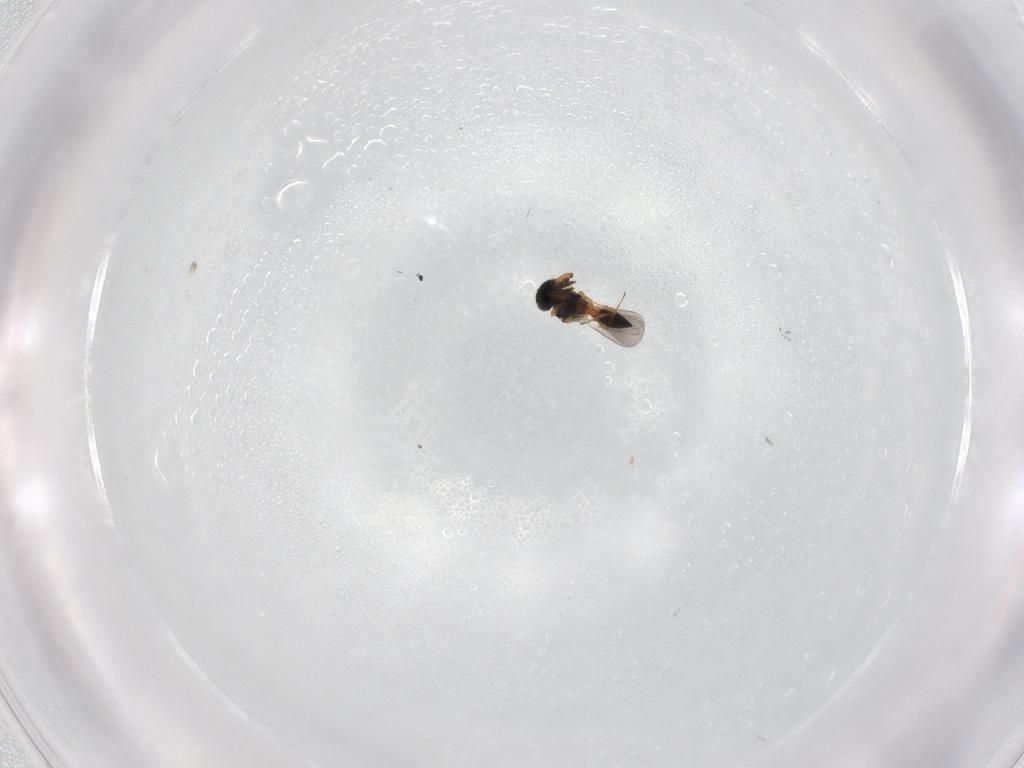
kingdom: Animalia
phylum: Arthropoda
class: Insecta
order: Hymenoptera
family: Platygastridae
